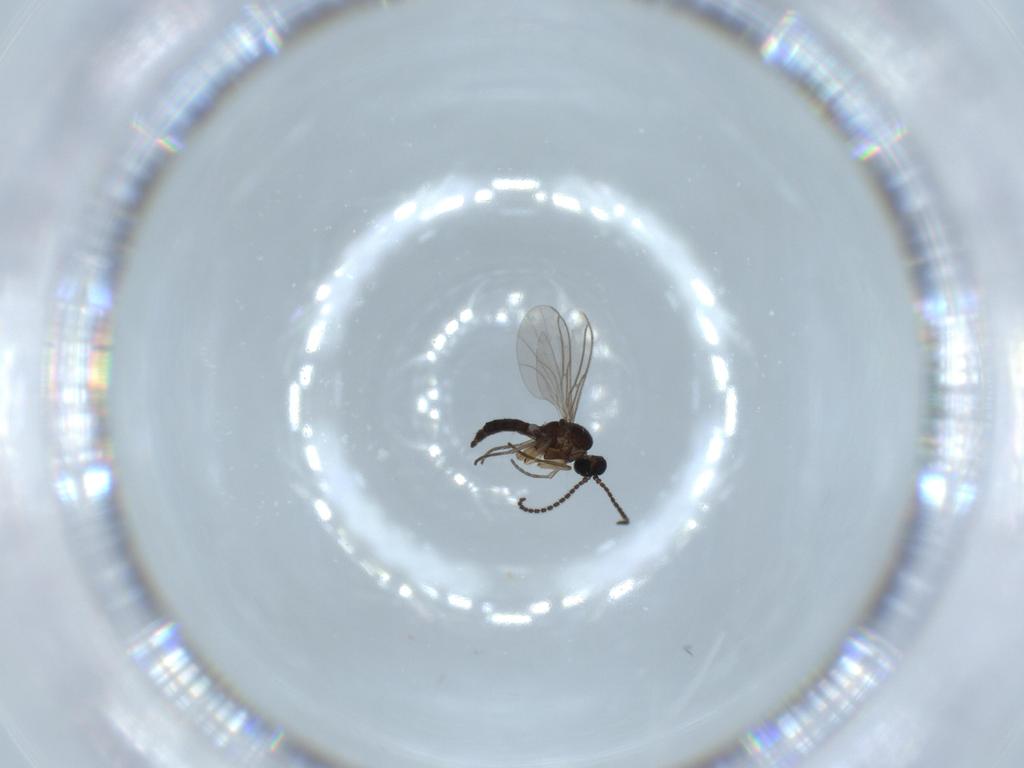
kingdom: Animalia
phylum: Arthropoda
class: Insecta
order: Diptera
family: Sciaridae
